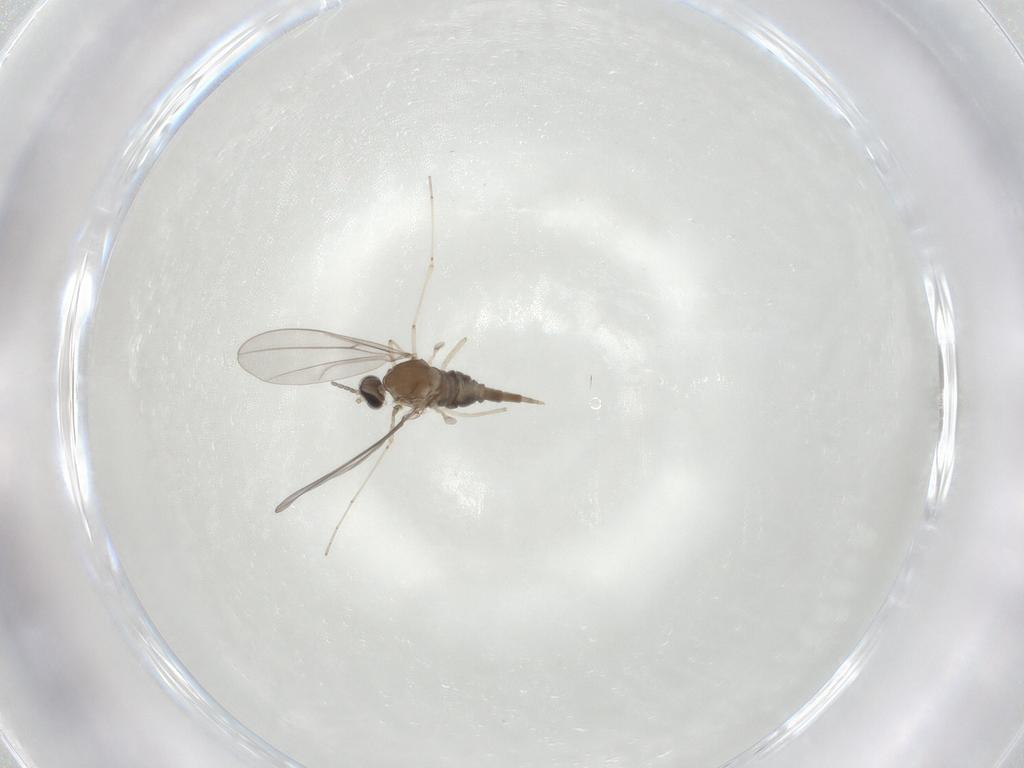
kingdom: Animalia
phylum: Arthropoda
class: Insecta
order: Diptera
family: Cecidomyiidae
